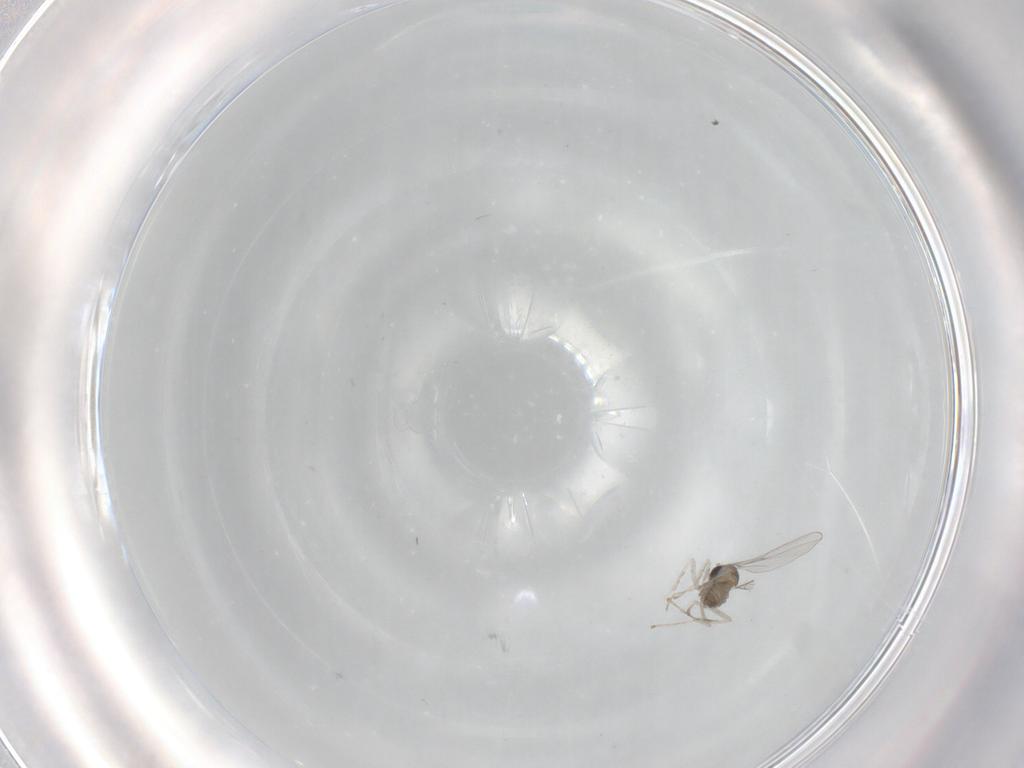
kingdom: Animalia
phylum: Arthropoda
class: Insecta
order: Diptera
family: Cecidomyiidae
